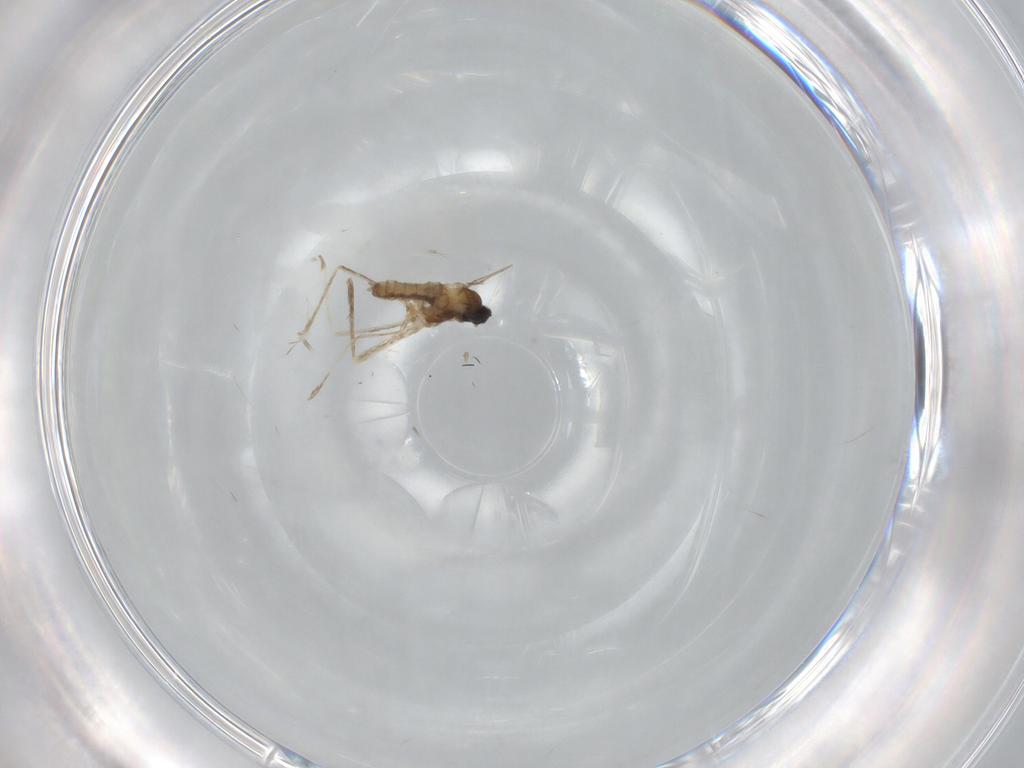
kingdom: Animalia
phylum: Arthropoda
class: Insecta
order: Diptera
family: Cecidomyiidae
